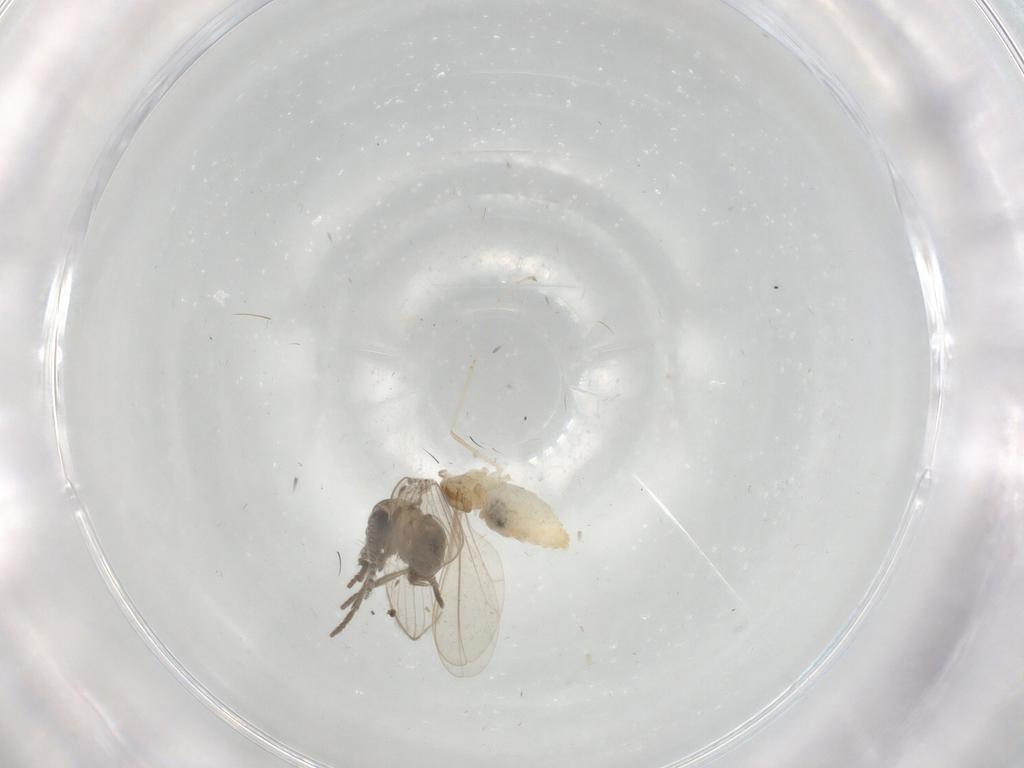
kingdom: Animalia
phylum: Arthropoda
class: Insecta
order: Diptera
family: Cecidomyiidae
